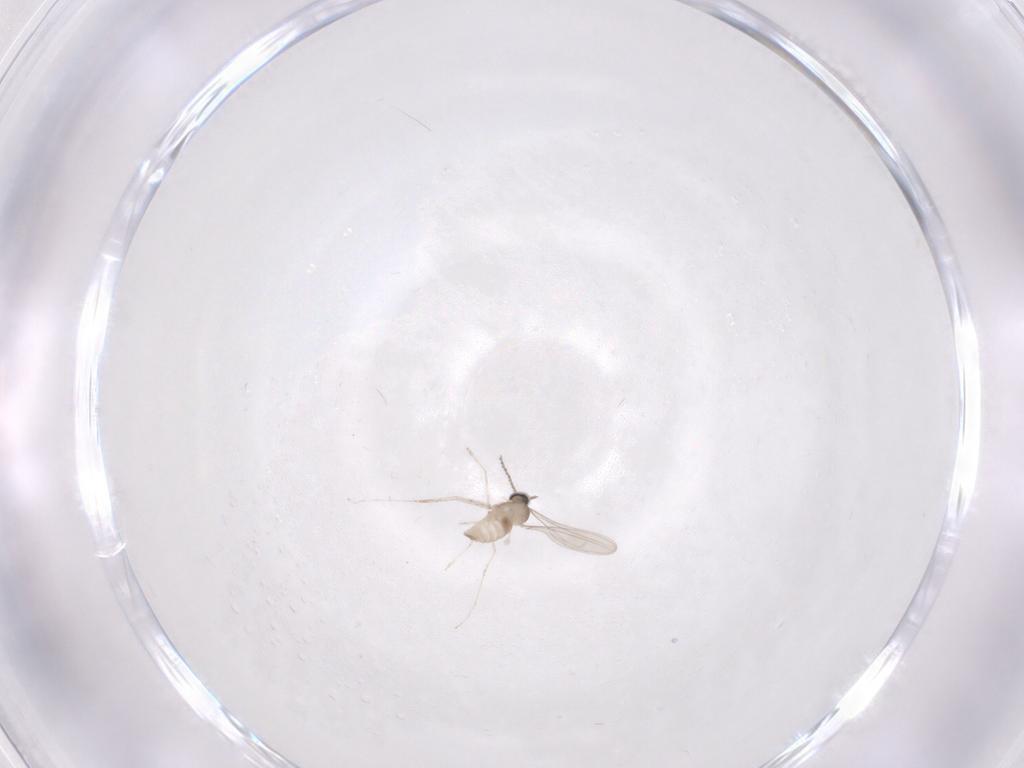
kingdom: Animalia
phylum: Arthropoda
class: Insecta
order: Diptera
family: Cecidomyiidae
